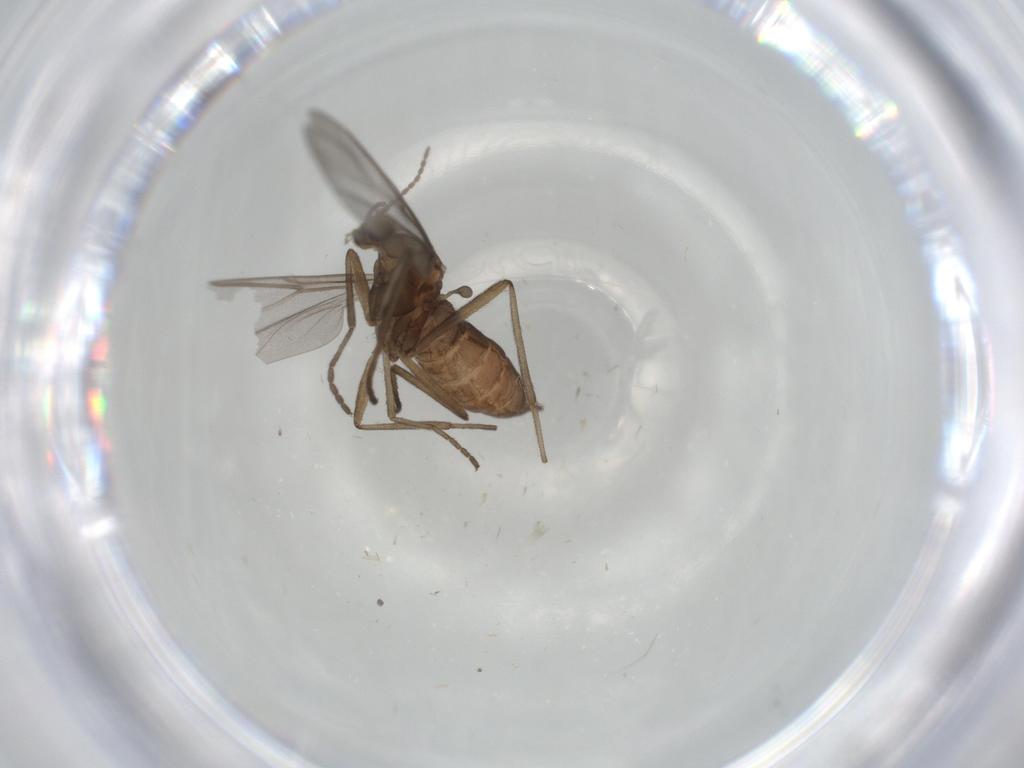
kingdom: Animalia
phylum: Arthropoda
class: Insecta
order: Diptera
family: Cecidomyiidae
